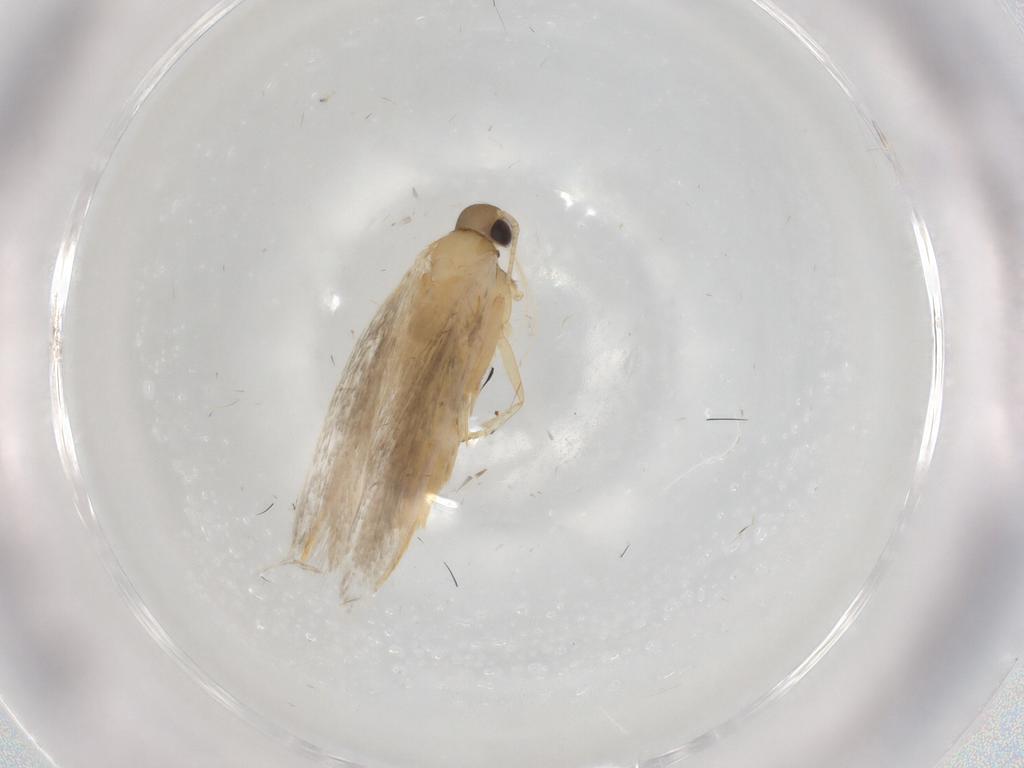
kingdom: Animalia
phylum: Arthropoda
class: Insecta
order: Lepidoptera
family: Autostichidae
